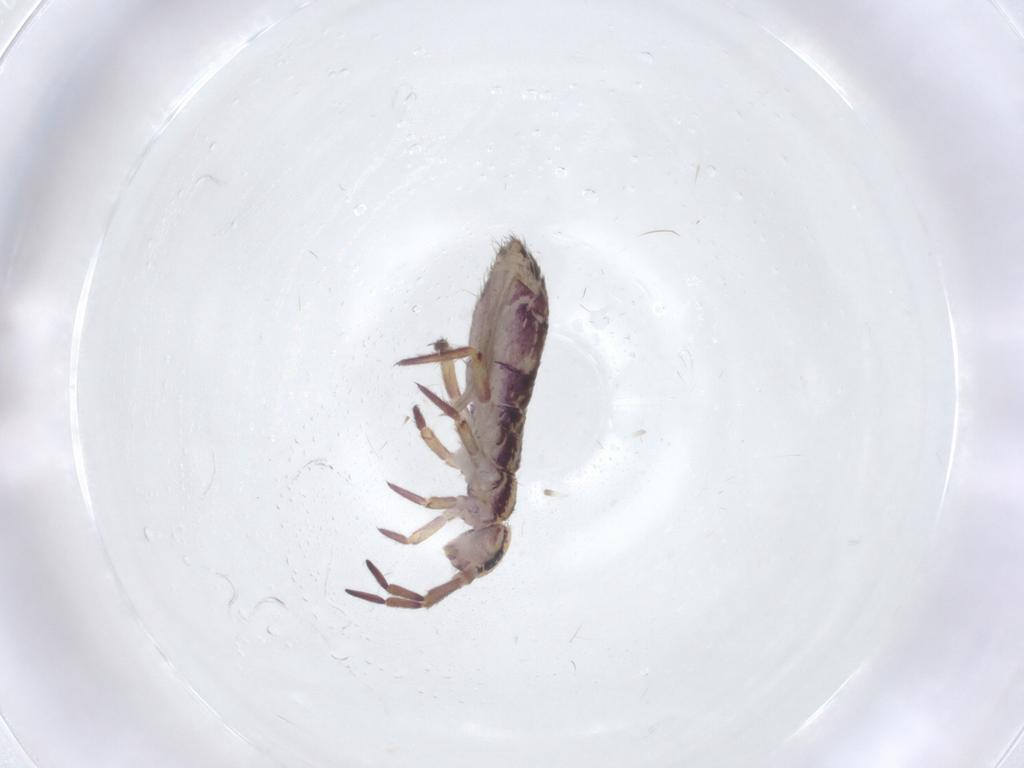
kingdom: Animalia
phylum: Arthropoda
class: Collembola
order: Entomobryomorpha
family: Isotomidae
